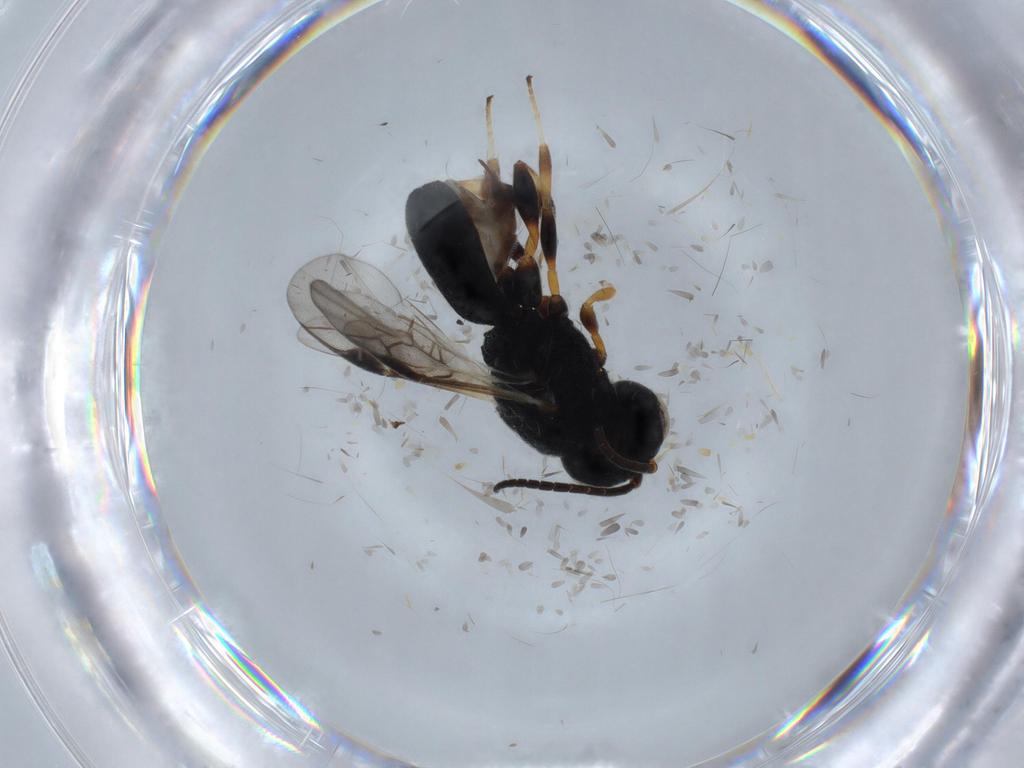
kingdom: Animalia
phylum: Arthropoda
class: Insecta
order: Hymenoptera
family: Braconidae
